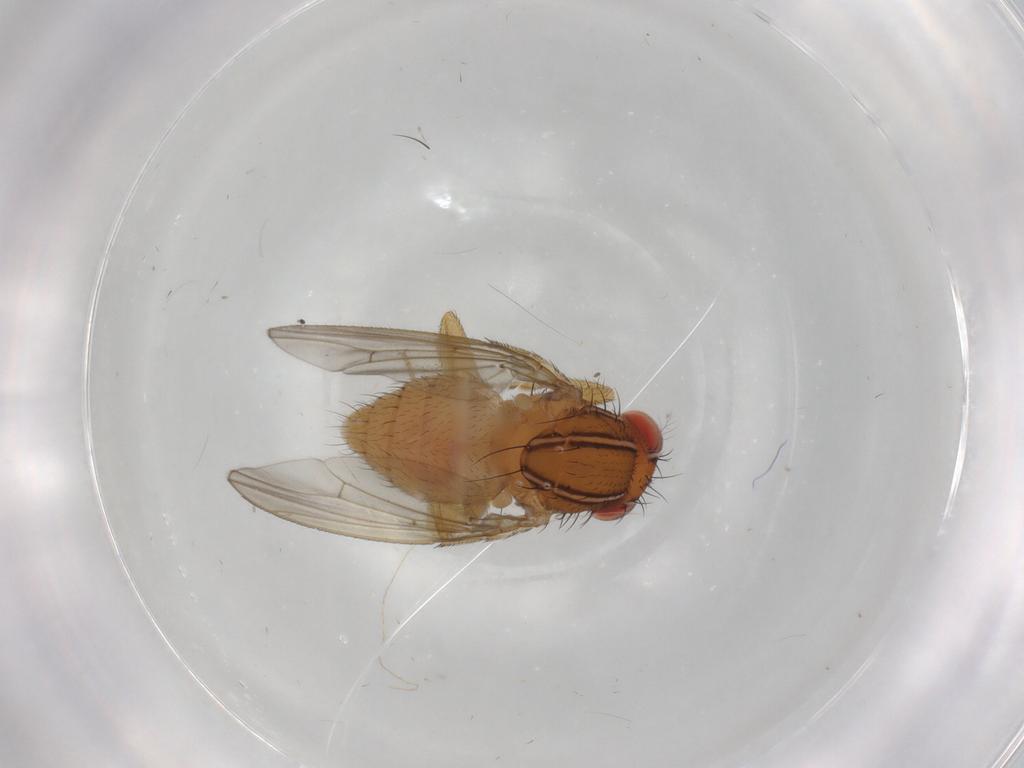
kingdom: Animalia
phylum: Arthropoda
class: Insecta
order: Diptera
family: Drosophilidae
